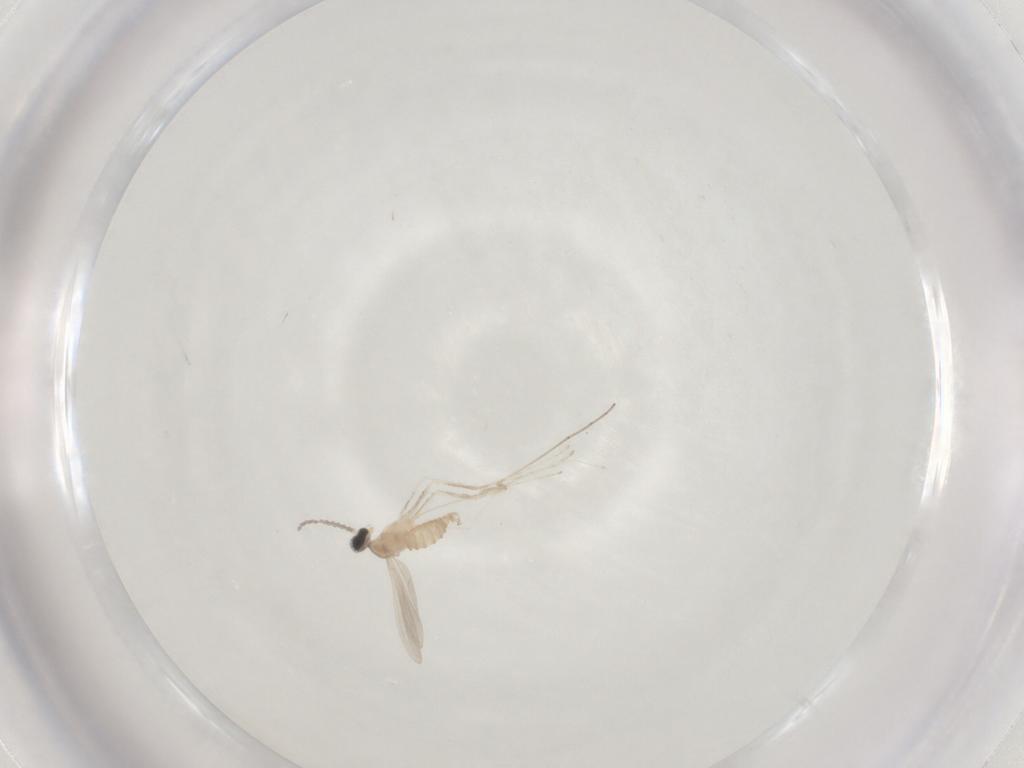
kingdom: Animalia
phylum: Arthropoda
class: Insecta
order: Diptera
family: Cecidomyiidae
